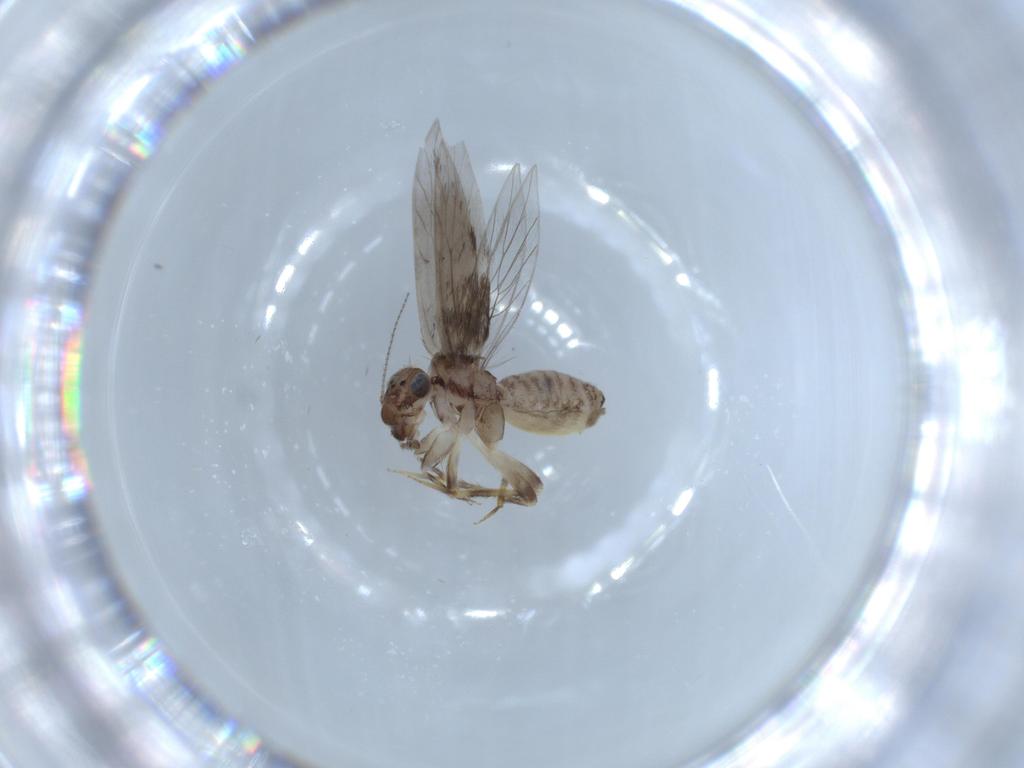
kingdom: Animalia
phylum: Arthropoda
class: Insecta
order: Psocodea
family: Lepidopsocidae
